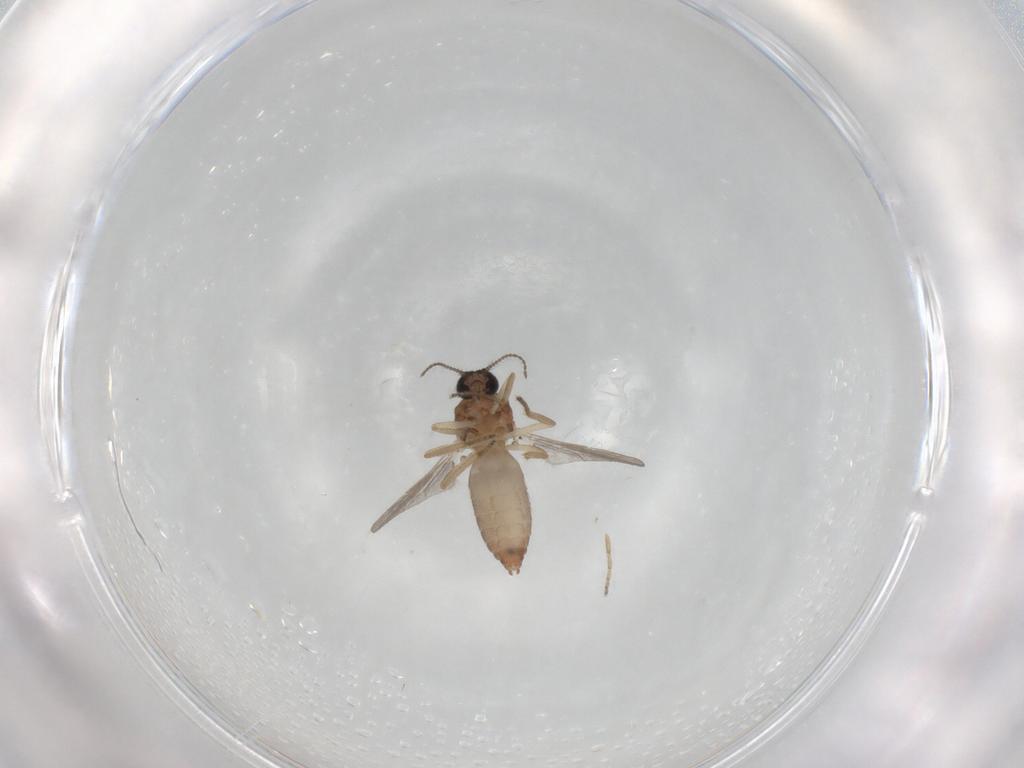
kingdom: Animalia
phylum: Arthropoda
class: Insecta
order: Diptera
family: Ceratopogonidae
